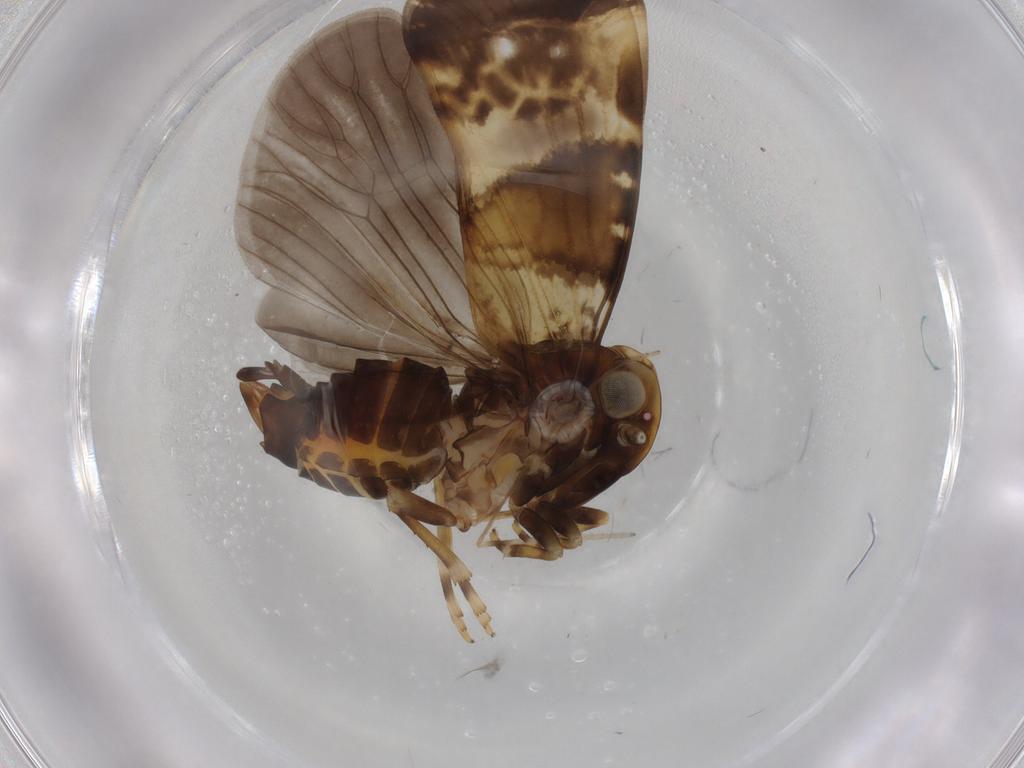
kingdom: Animalia
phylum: Arthropoda
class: Insecta
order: Hemiptera
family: Cixiidae
